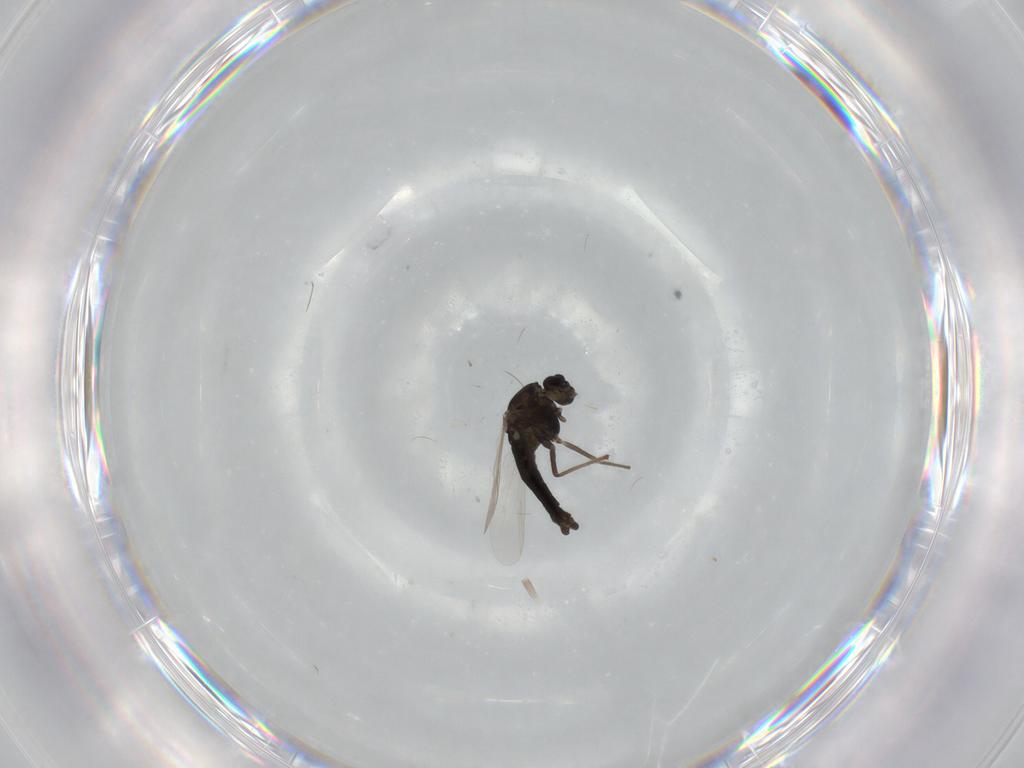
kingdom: Animalia
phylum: Arthropoda
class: Insecta
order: Diptera
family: Chironomidae
